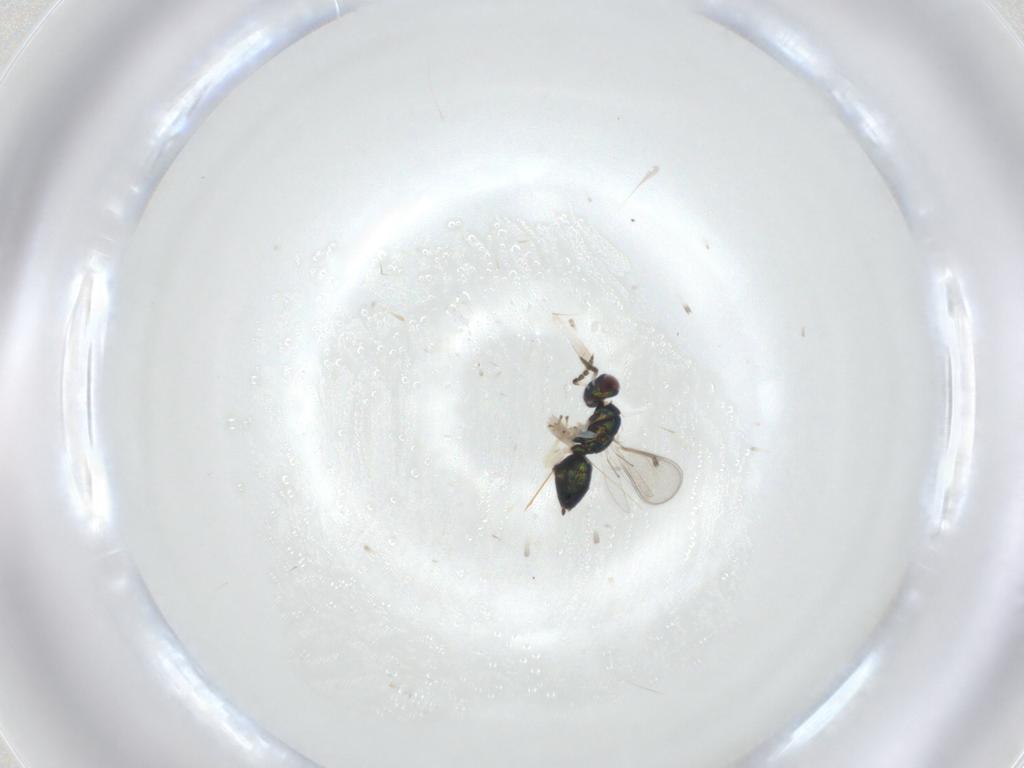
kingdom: Animalia
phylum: Arthropoda
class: Insecta
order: Hymenoptera
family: Eulophidae
